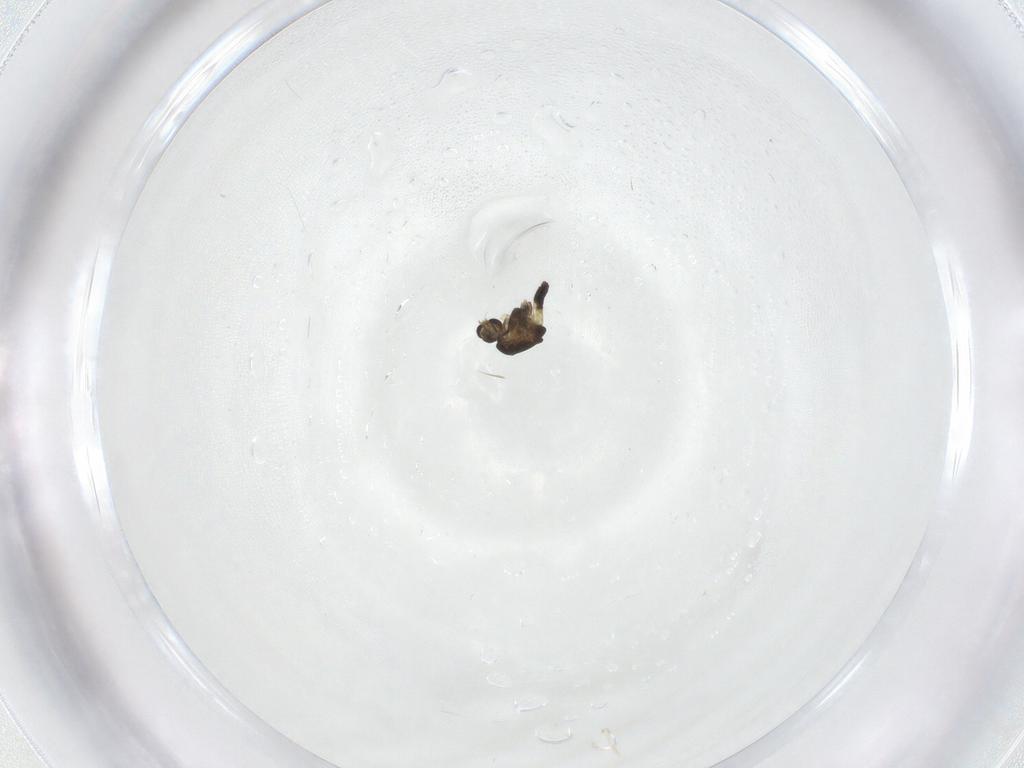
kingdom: Animalia
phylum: Arthropoda
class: Insecta
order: Diptera
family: Chironomidae
